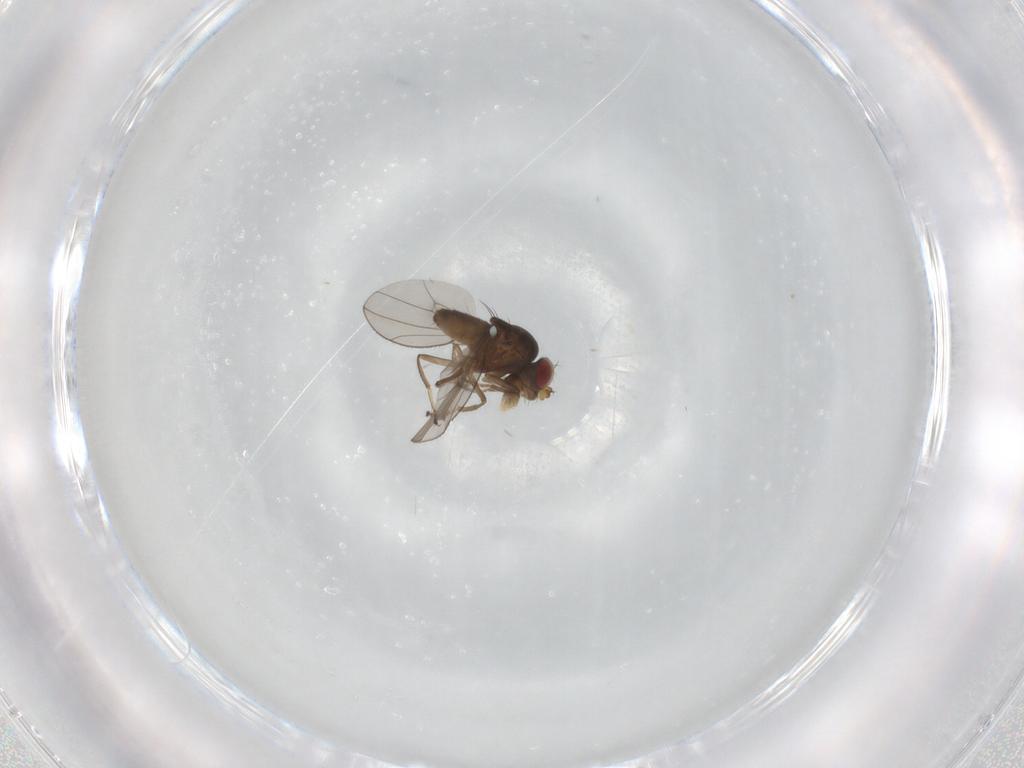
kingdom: Animalia
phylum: Arthropoda
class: Insecta
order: Diptera
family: Ephydridae
